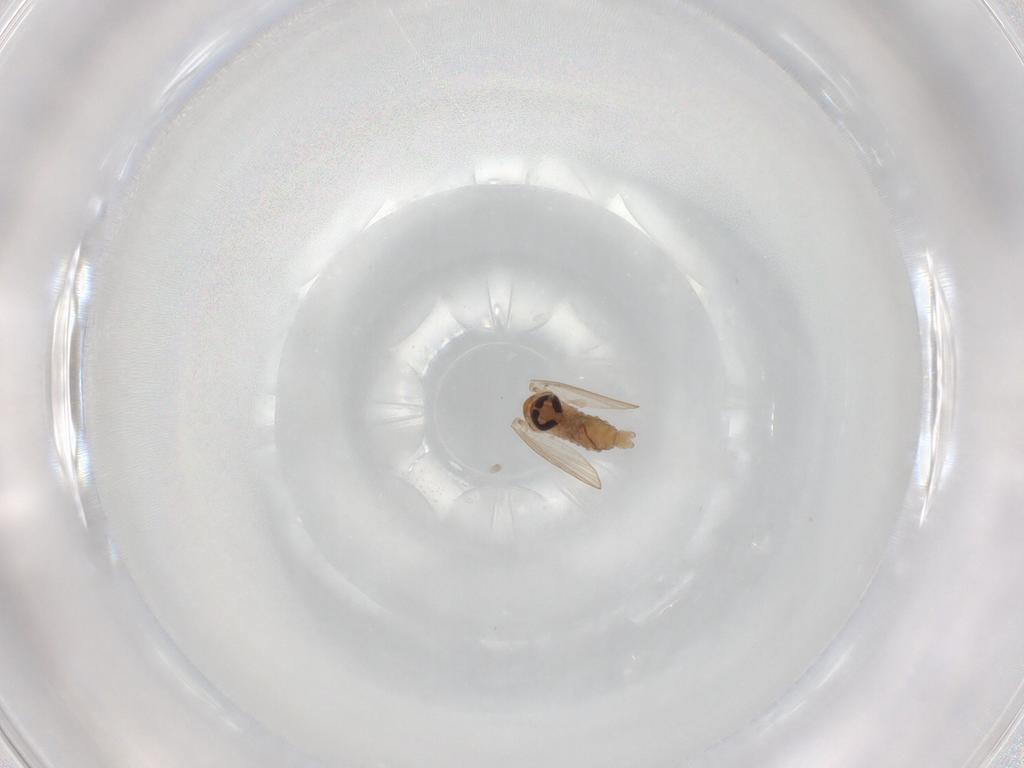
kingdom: Animalia
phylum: Arthropoda
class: Insecta
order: Diptera
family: Psychodidae
